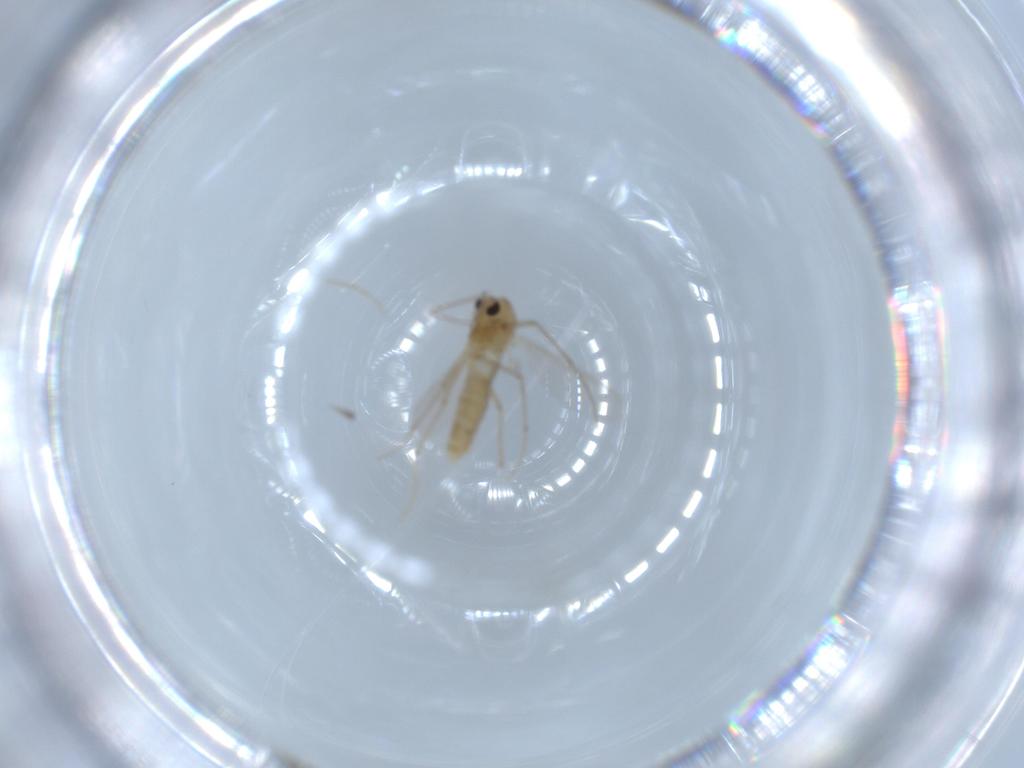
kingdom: Animalia
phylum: Arthropoda
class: Insecta
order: Diptera
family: Chironomidae
